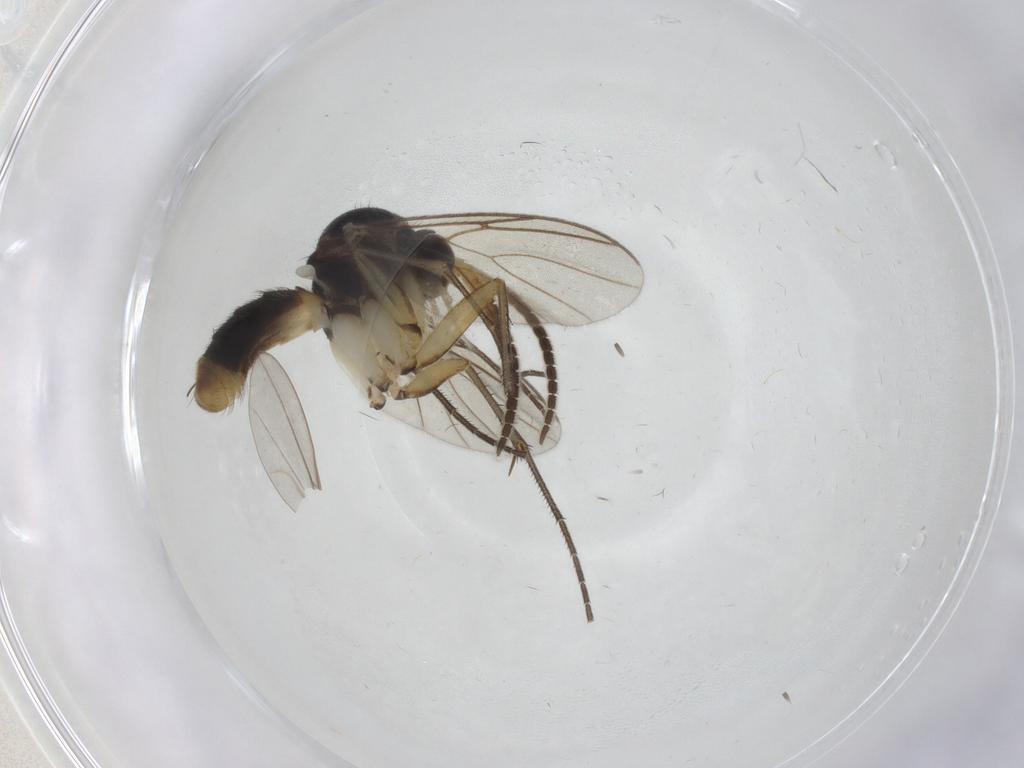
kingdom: Animalia
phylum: Arthropoda
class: Insecta
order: Diptera
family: Mycetophilidae
